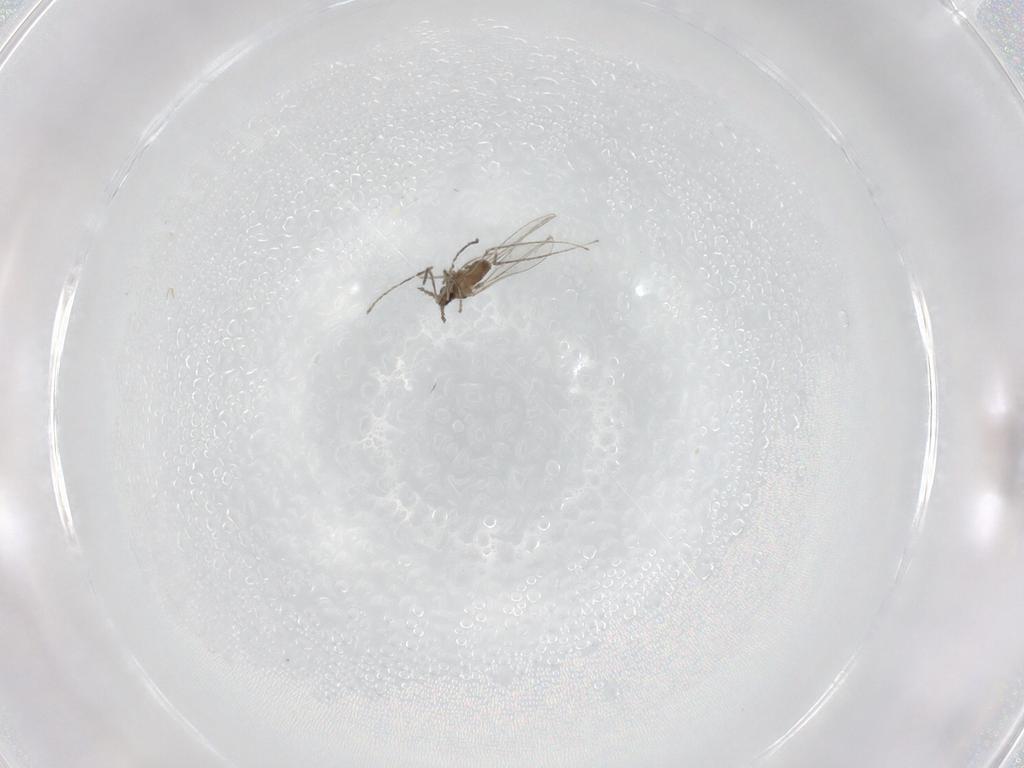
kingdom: Animalia
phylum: Arthropoda
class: Insecta
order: Diptera
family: Cecidomyiidae
